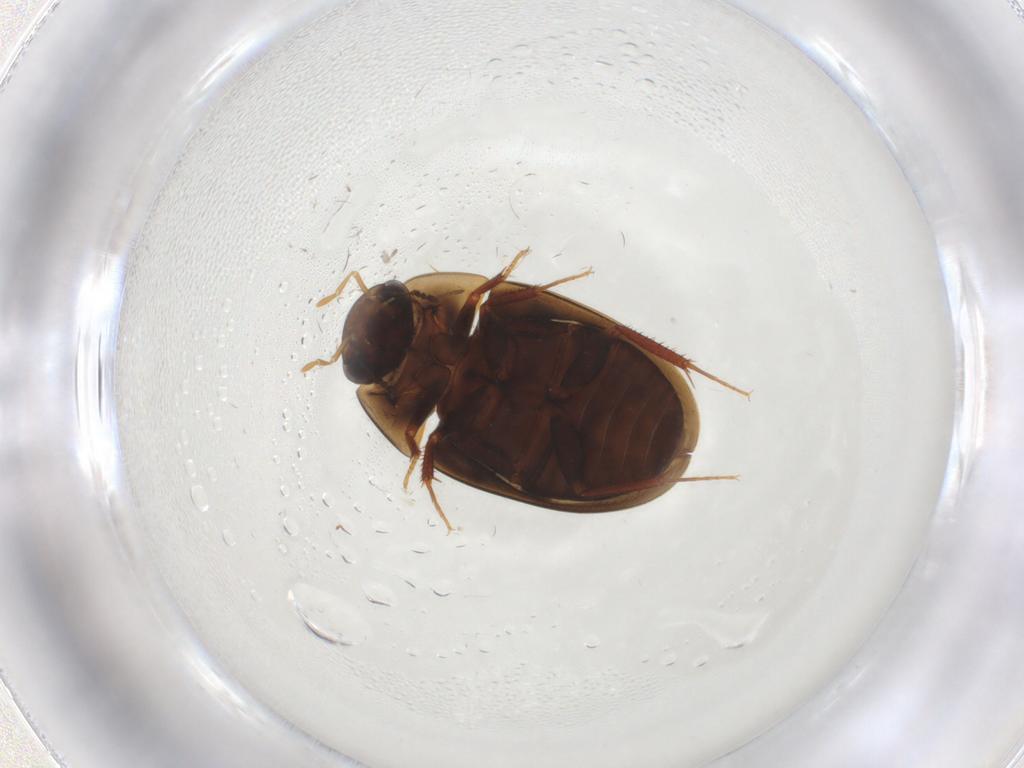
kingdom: Animalia
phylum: Arthropoda
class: Insecta
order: Coleoptera
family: Hydrophilidae
